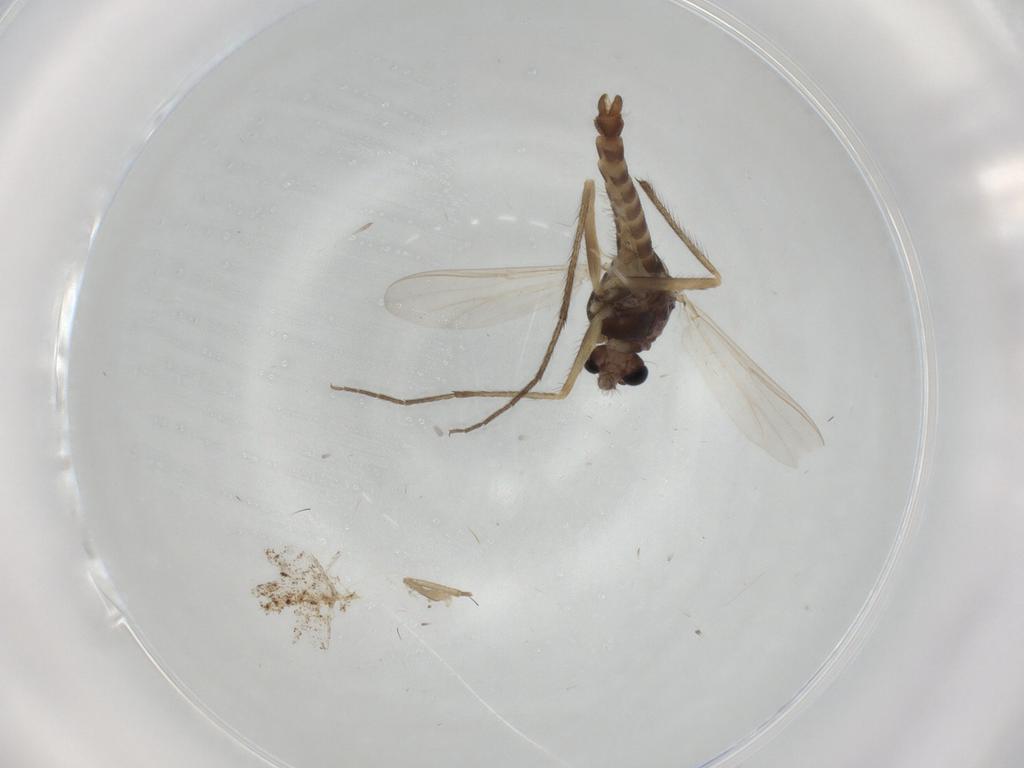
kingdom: Animalia
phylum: Arthropoda
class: Insecta
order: Diptera
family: Chironomidae
